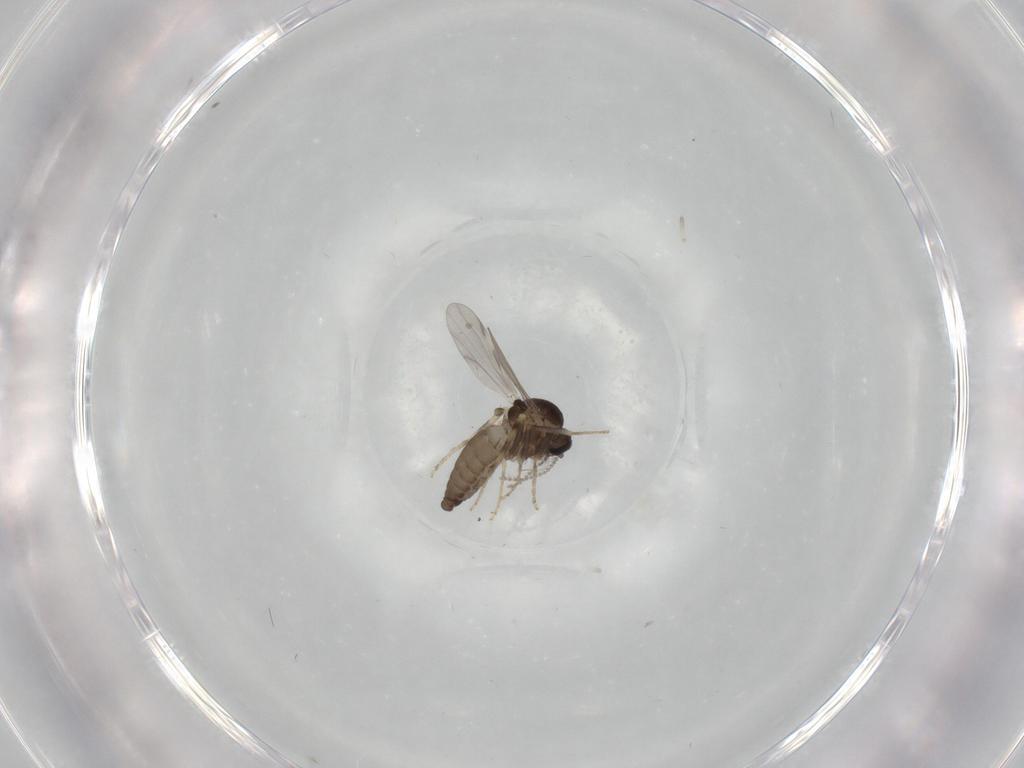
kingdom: Animalia
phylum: Arthropoda
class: Insecta
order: Diptera
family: Ceratopogonidae
